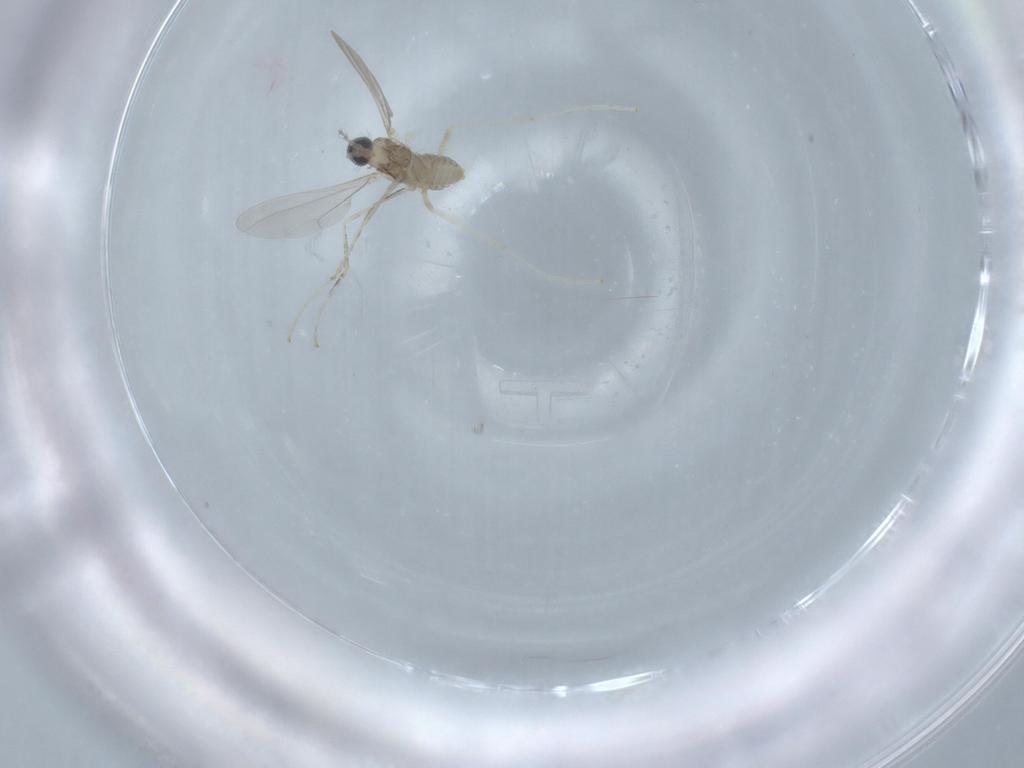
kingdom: Animalia
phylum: Arthropoda
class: Insecta
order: Diptera
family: Cecidomyiidae
